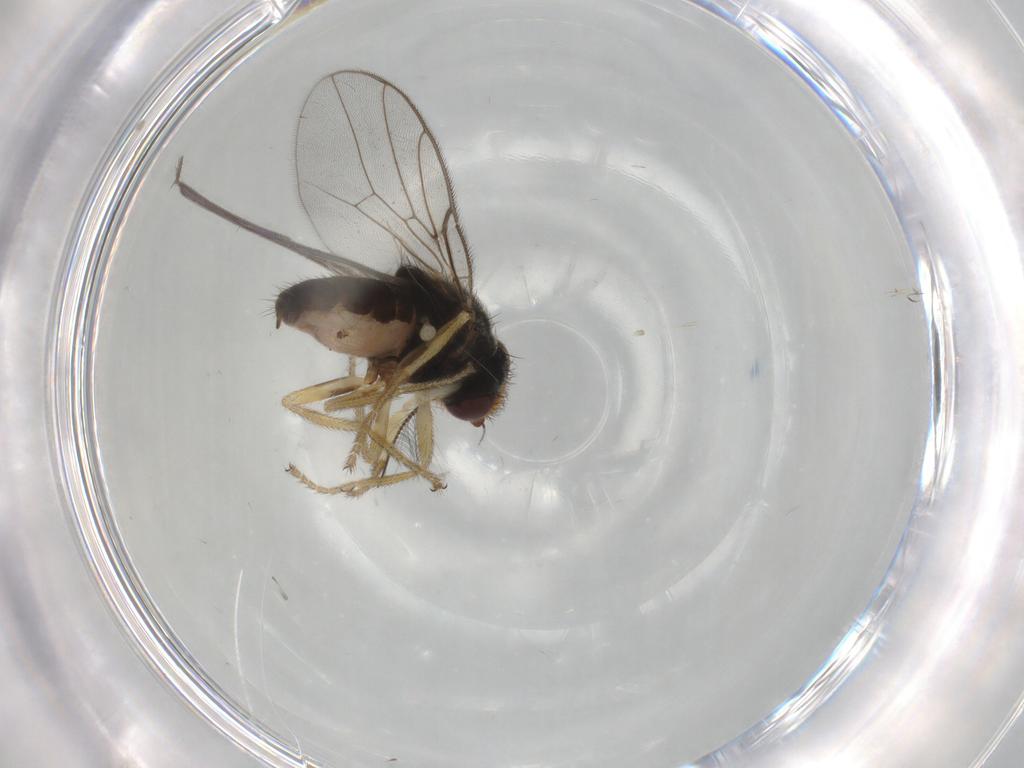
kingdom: Animalia
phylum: Arthropoda
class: Insecta
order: Diptera
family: Chloropidae
